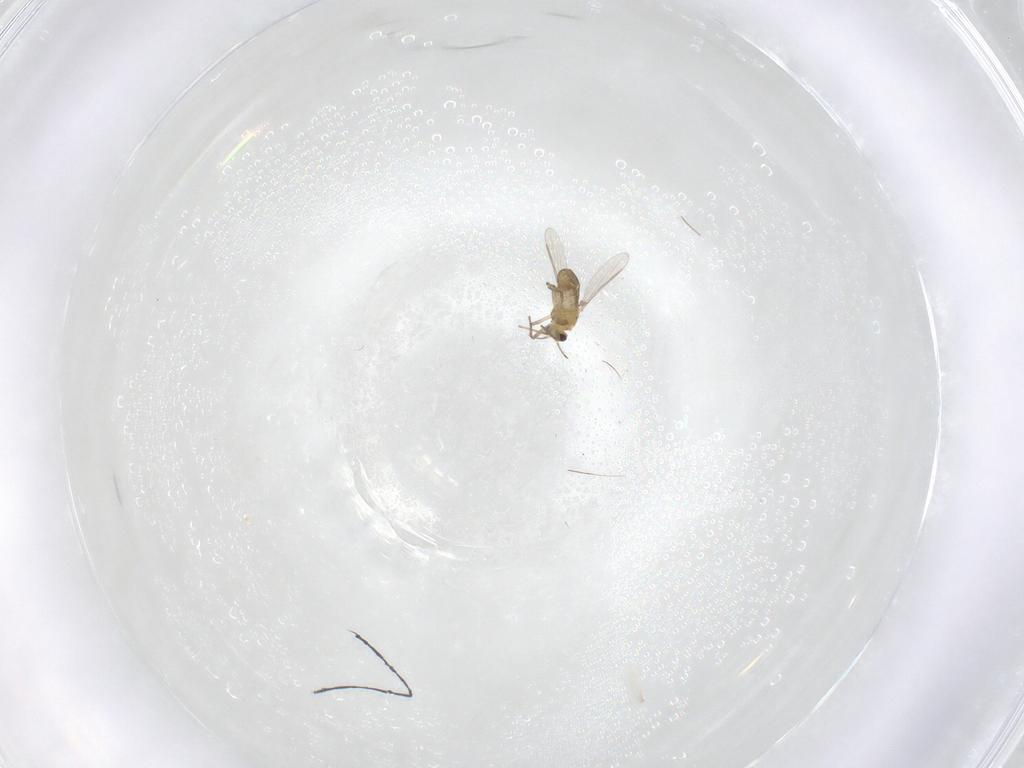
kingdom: Animalia
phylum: Arthropoda
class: Insecta
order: Diptera
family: Chironomidae
